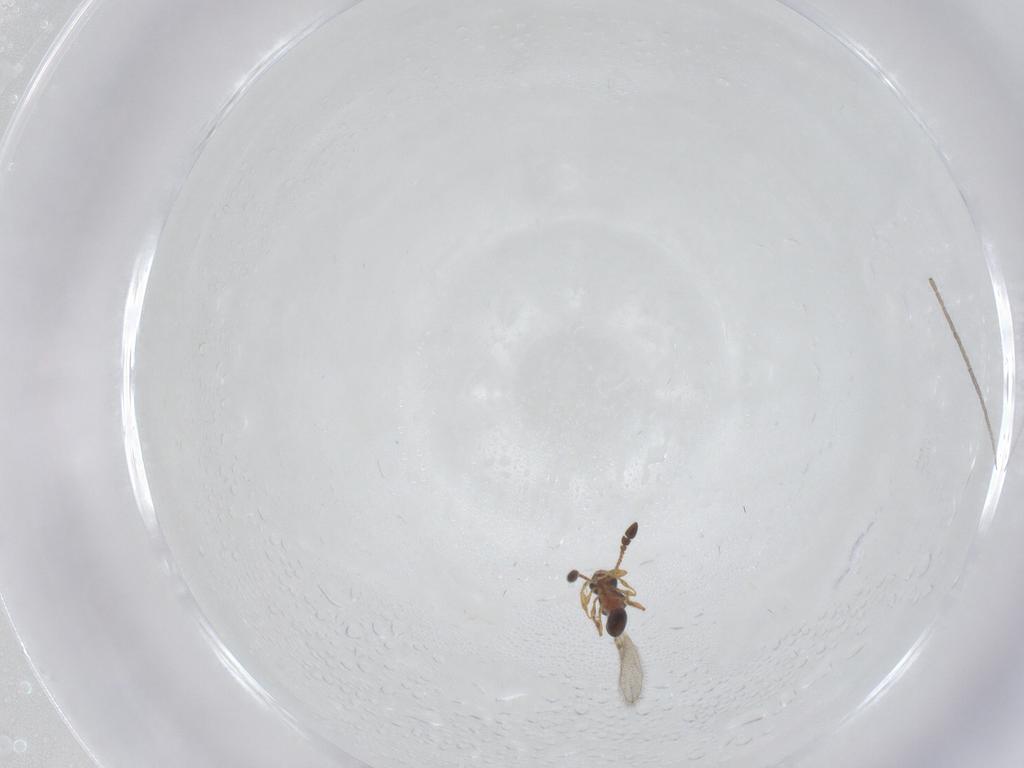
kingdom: Animalia
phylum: Arthropoda
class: Insecta
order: Hymenoptera
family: Diapriidae
